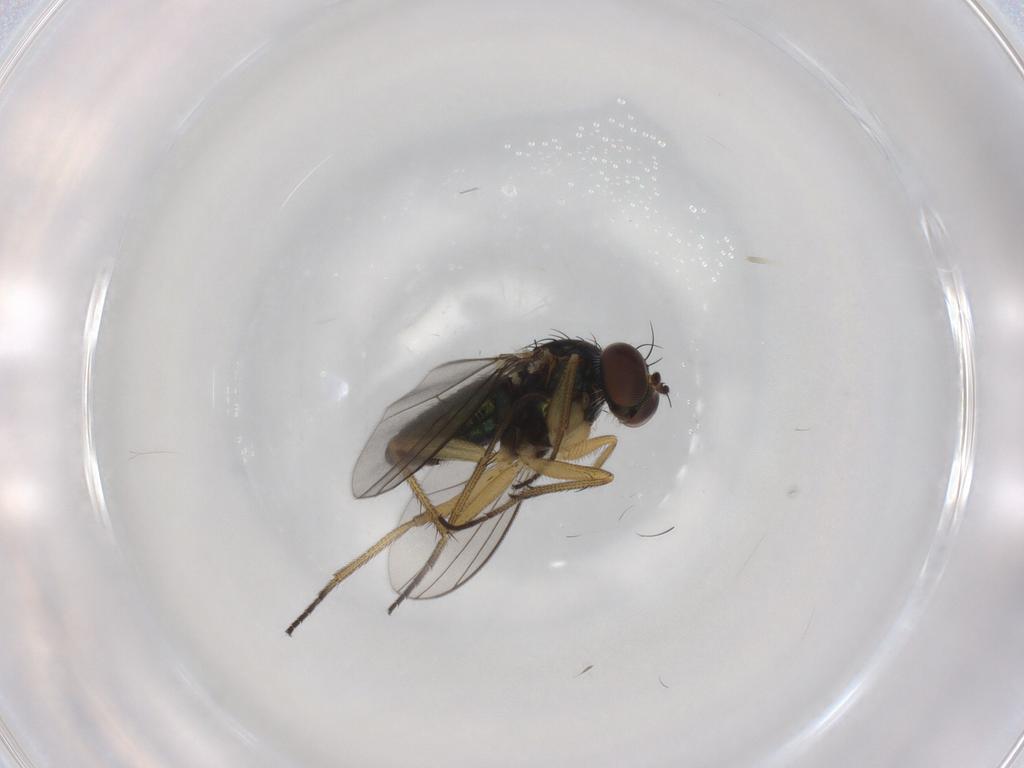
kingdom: Animalia
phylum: Arthropoda
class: Insecta
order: Diptera
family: Dolichopodidae
